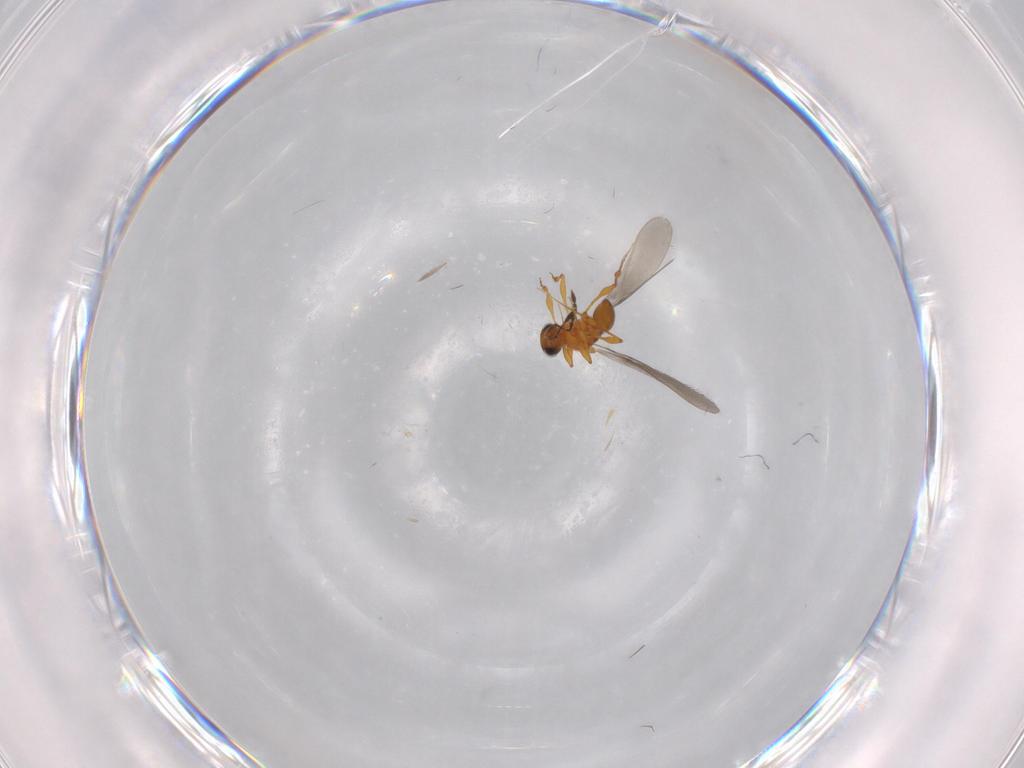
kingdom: Animalia
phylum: Arthropoda
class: Insecta
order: Hymenoptera
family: Platygastridae
